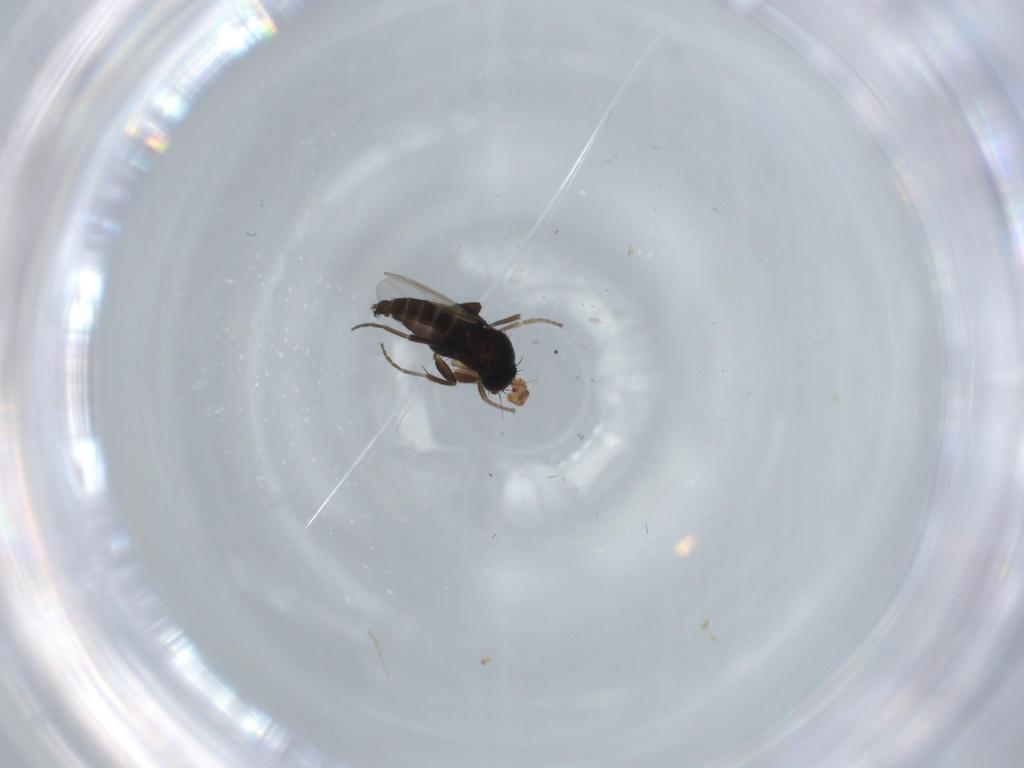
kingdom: Animalia
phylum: Arthropoda
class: Insecta
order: Diptera
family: Phoridae
